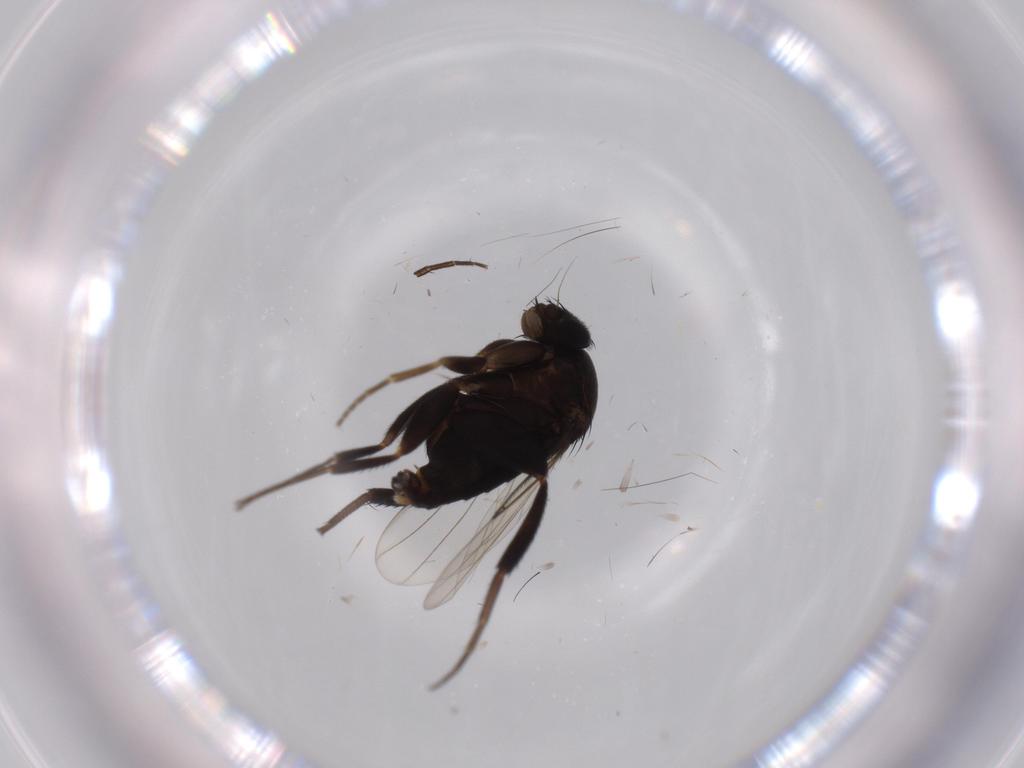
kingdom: Animalia
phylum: Arthropoda
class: Insecta
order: Diptera
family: Phoridae
